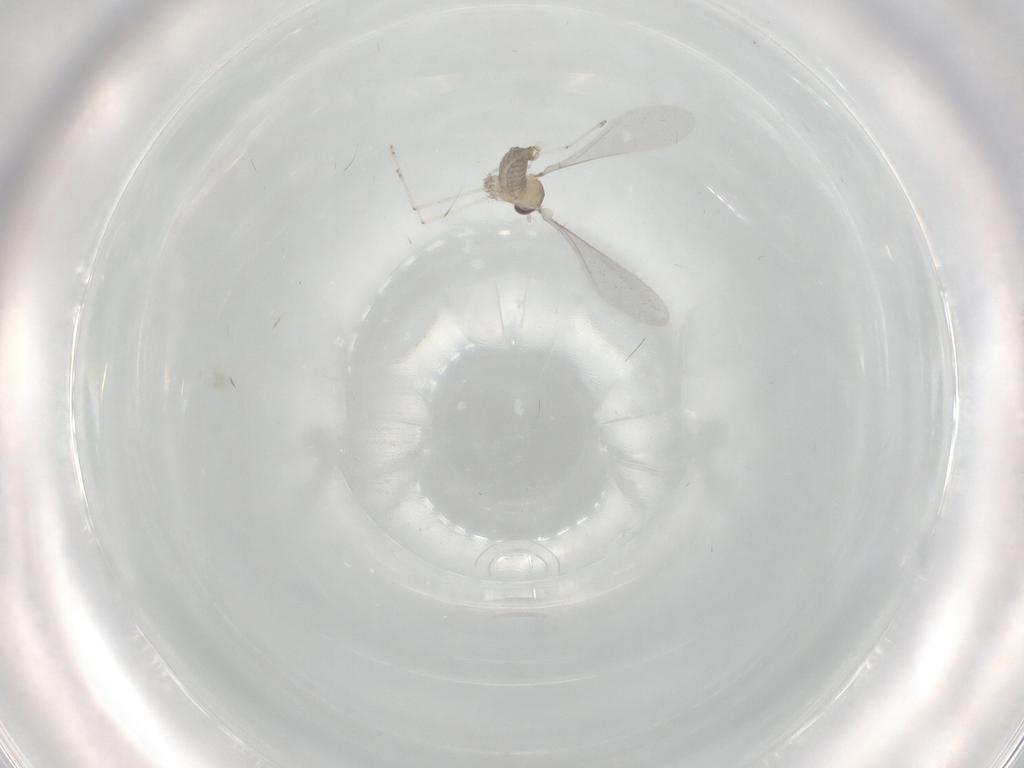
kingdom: Animalia
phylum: Arthropoda
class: Insecta
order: Diptera
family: Cecidomyiidae
